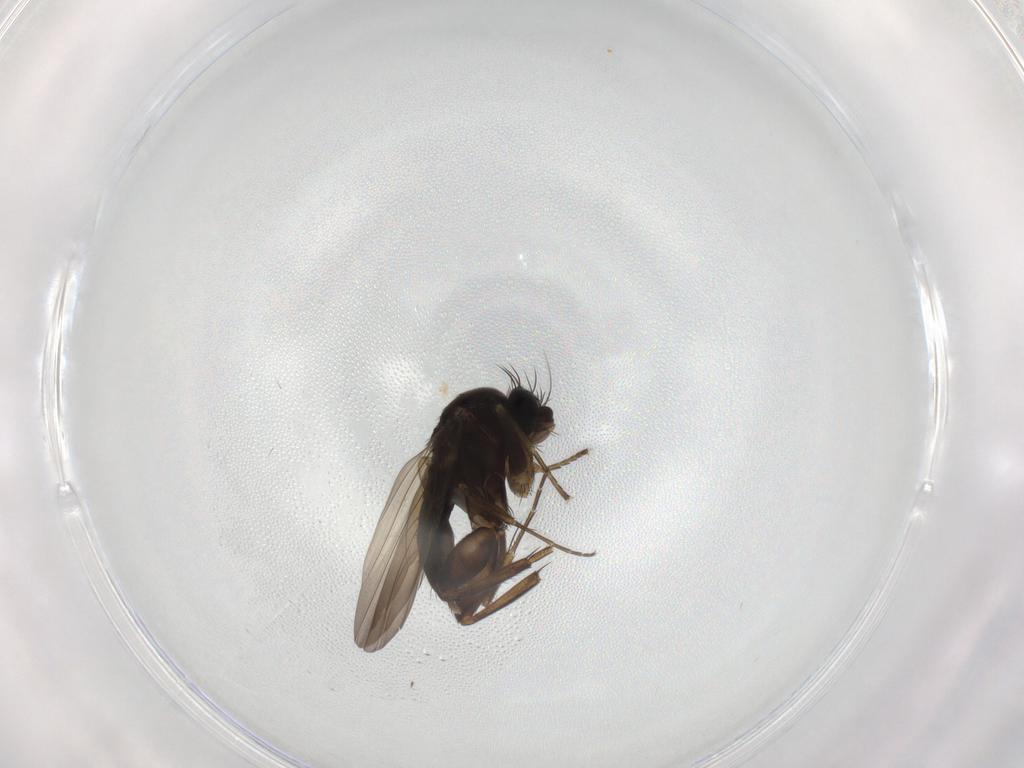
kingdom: Animalia
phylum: Arthropoda
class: Insecta
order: Diptera
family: Phoridae
